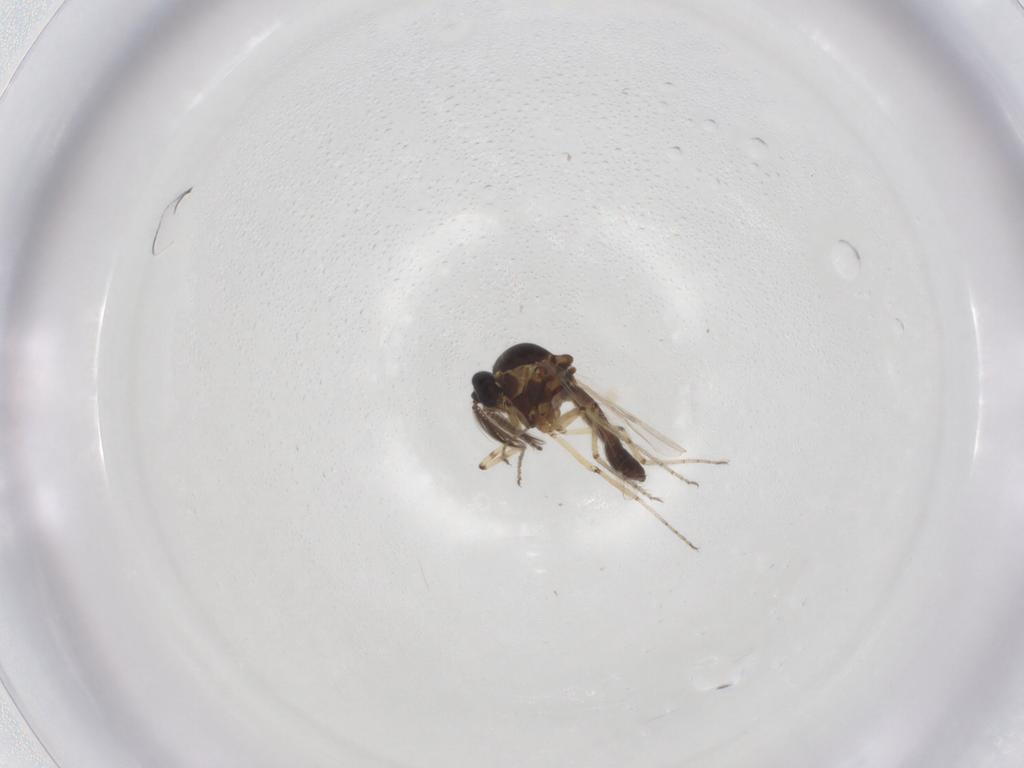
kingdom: Animalia
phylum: Arthropoda
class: Insecta
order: Diptera
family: Ceratopogonidae
